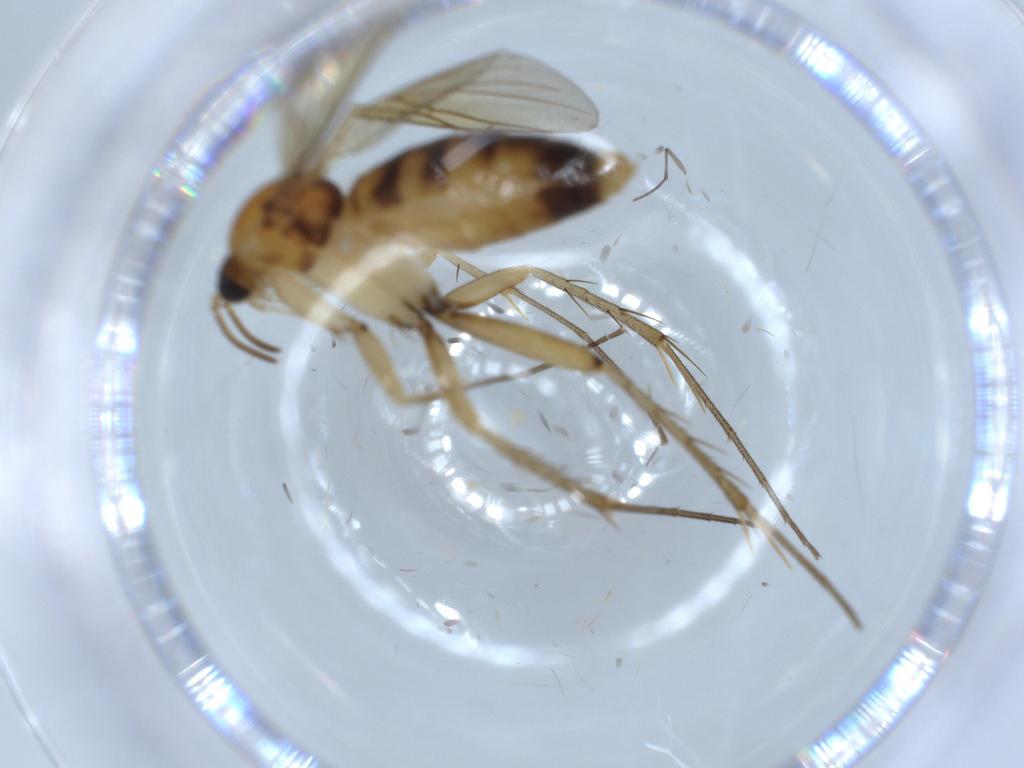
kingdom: Animalia
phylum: Arthropoda
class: Insecta
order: Diptera
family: Mycetophilidae
